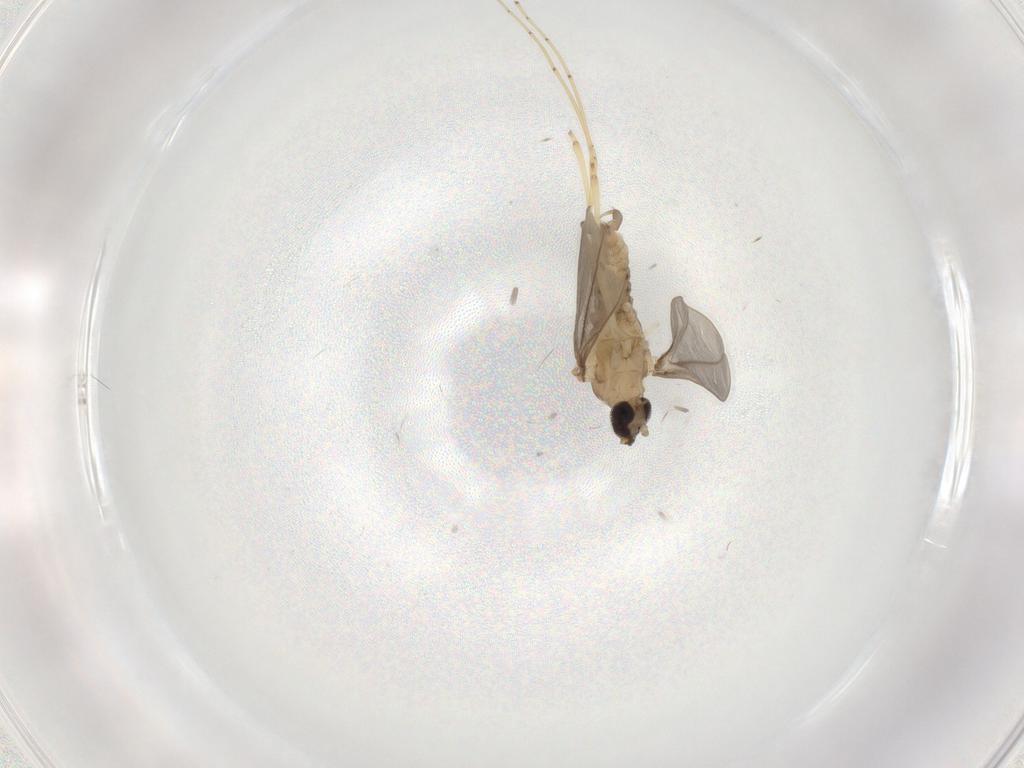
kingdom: Animalia
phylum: Arthropoda
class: Insecta
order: Diptera
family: Cecidomyiidae
